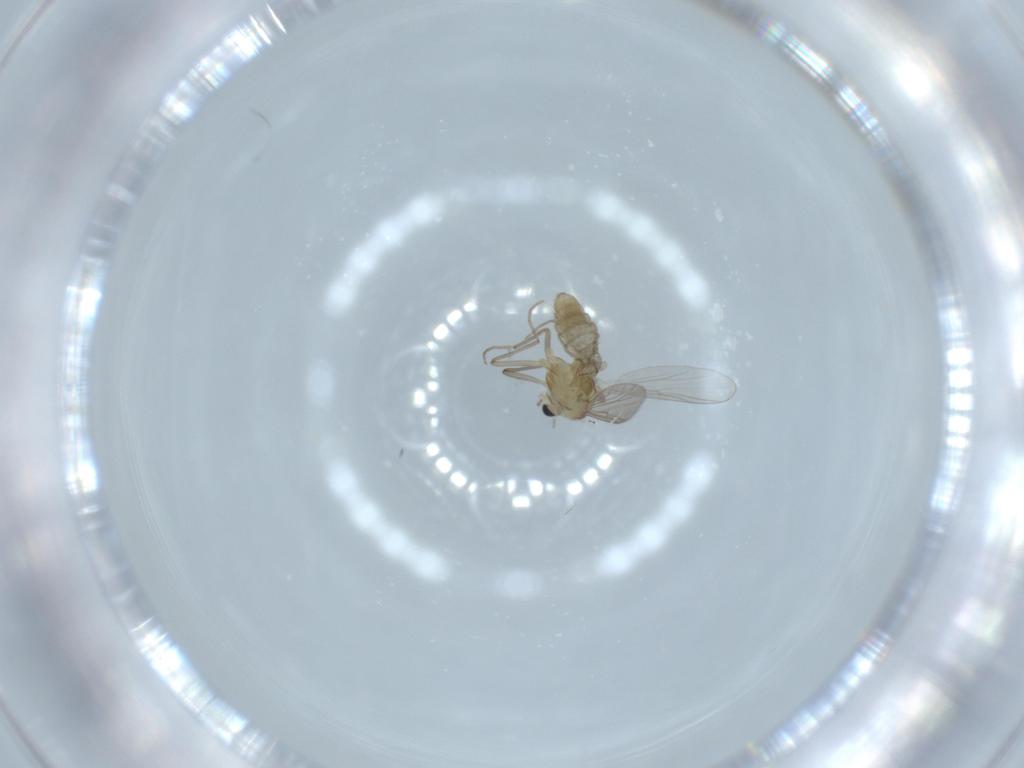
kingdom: Animalia
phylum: Arthropoda
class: Insecta
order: Diptera
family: Chironomidae
